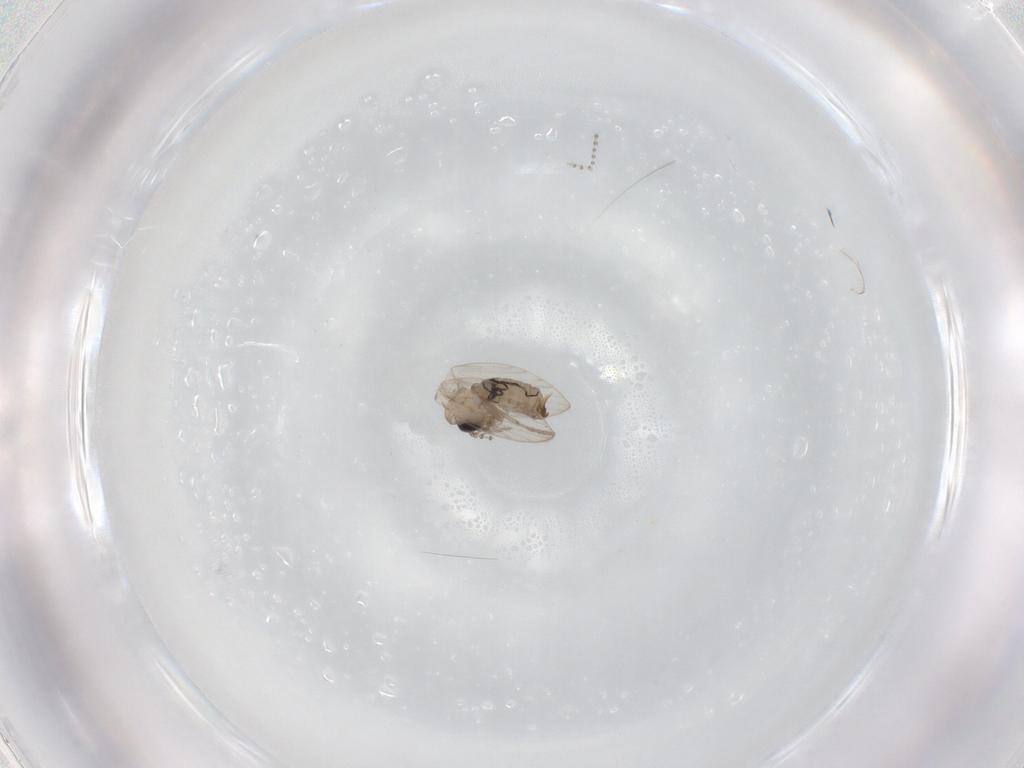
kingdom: Animalia
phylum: Arthropoda
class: Insecta
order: Diptera
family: Psychodidae
